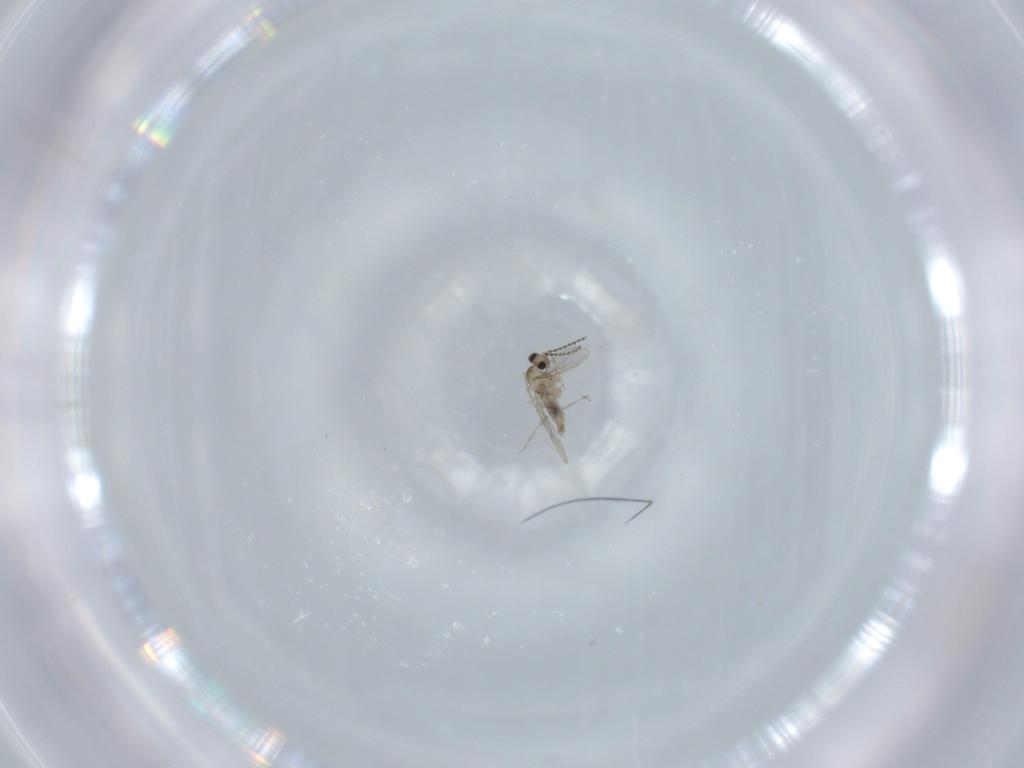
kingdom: Animalia
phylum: Arthropoda
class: Insecta
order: Diptera
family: Cecidomyiidae
